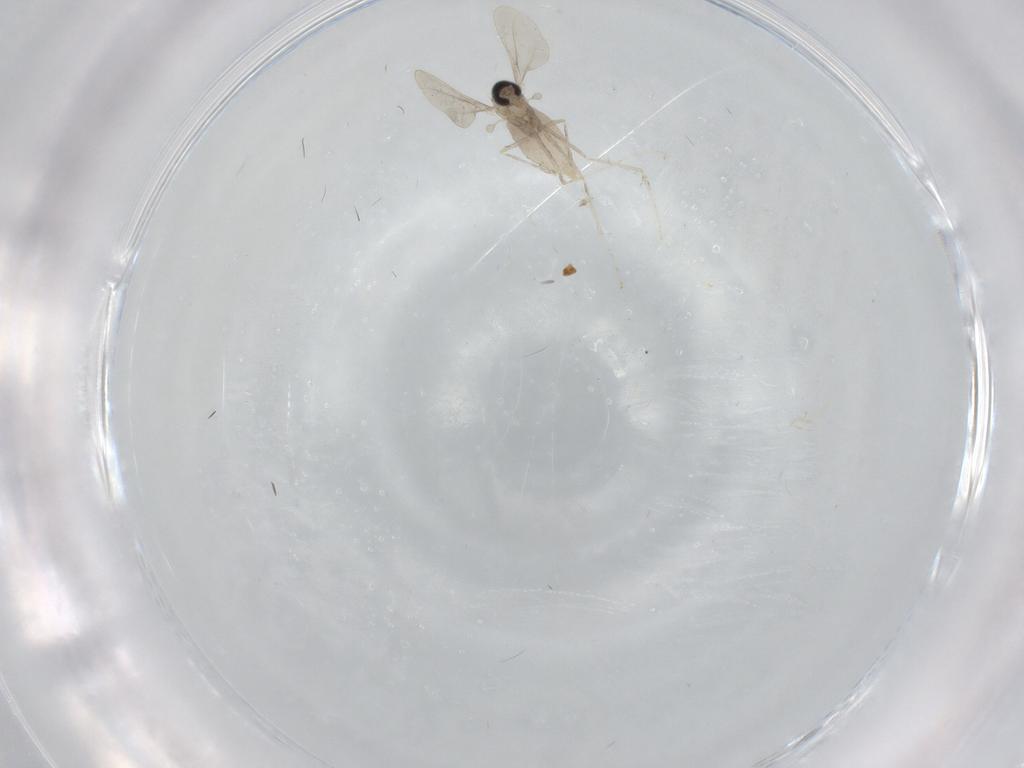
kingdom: Animalia
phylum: Arthropoda
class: Insecta
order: Diptera
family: Cecidomyiidae
